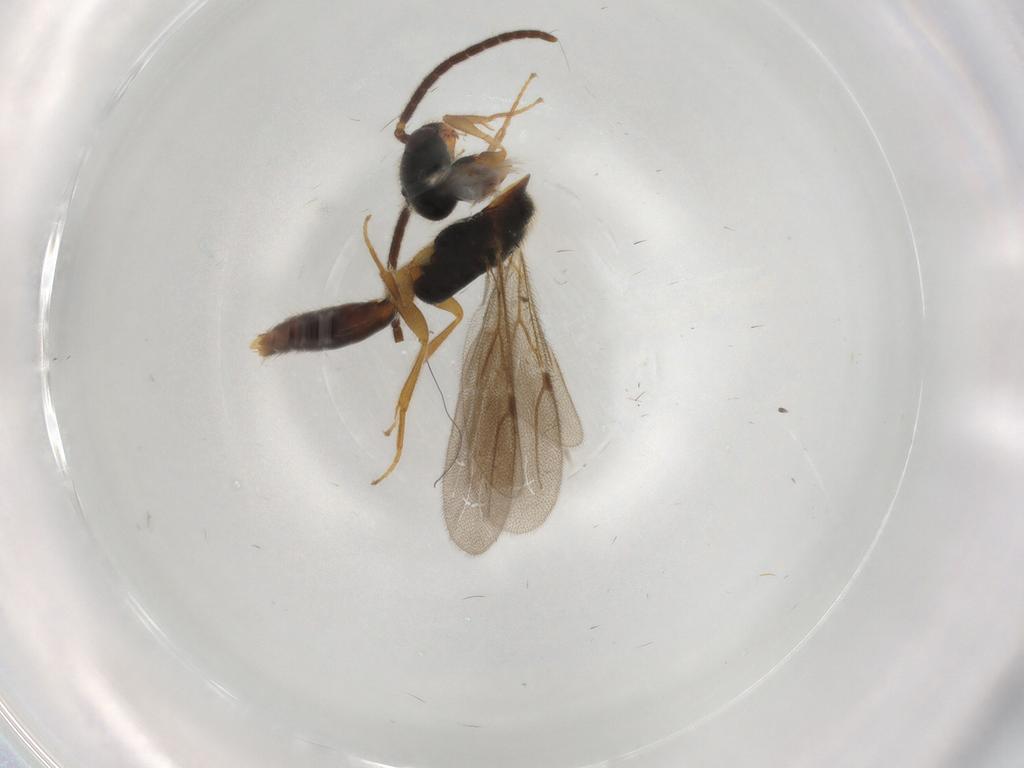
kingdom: Animalia
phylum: Arthropoda
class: Insecta
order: Hymenoptera
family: Bethylidae
